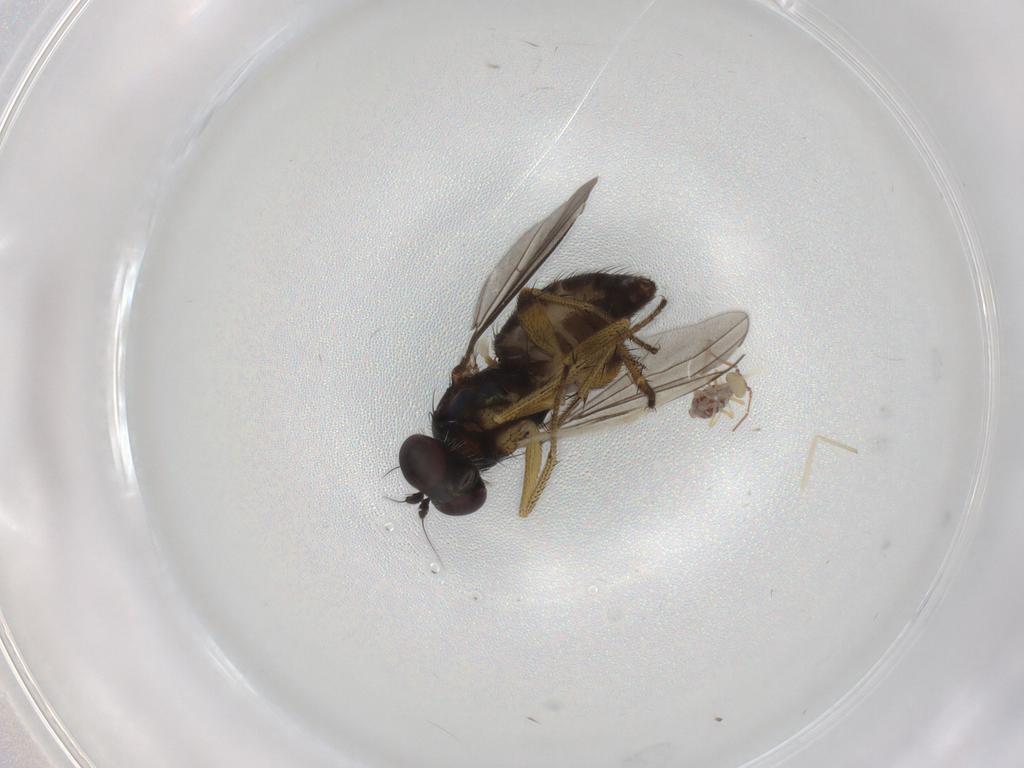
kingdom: Animalia
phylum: Arthropoda
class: Insecta
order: Diptera
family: Dolichopodidae
